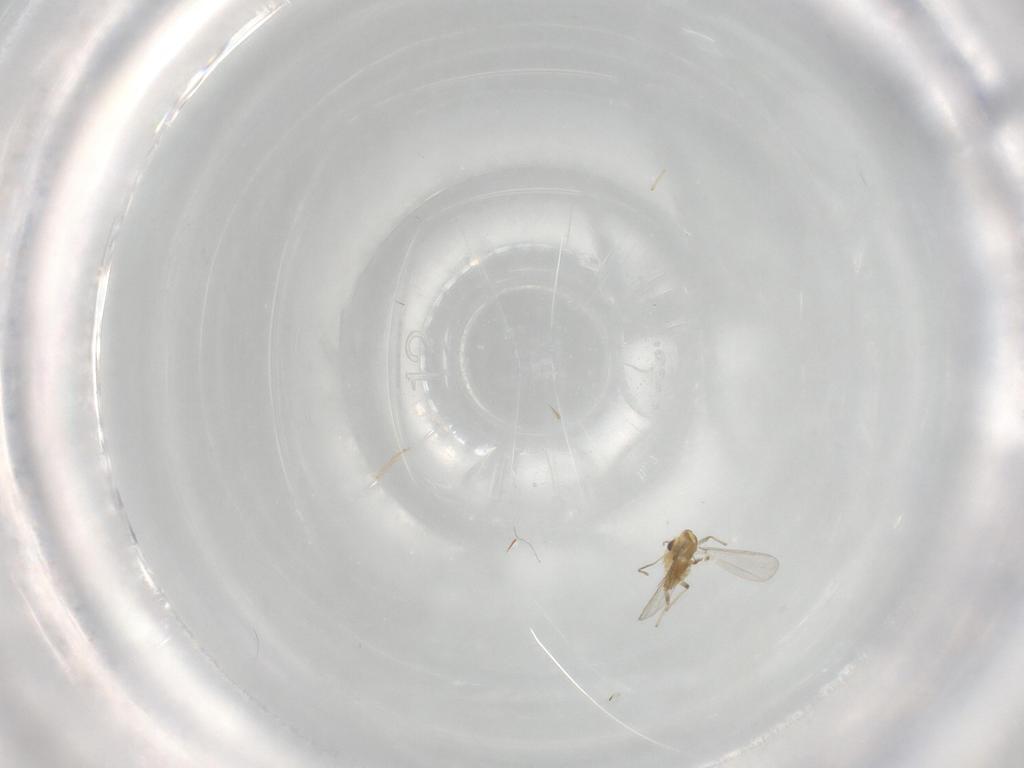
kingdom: Animalia
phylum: Arthropoda
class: Insecta
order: Diptera
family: Chironomidae
